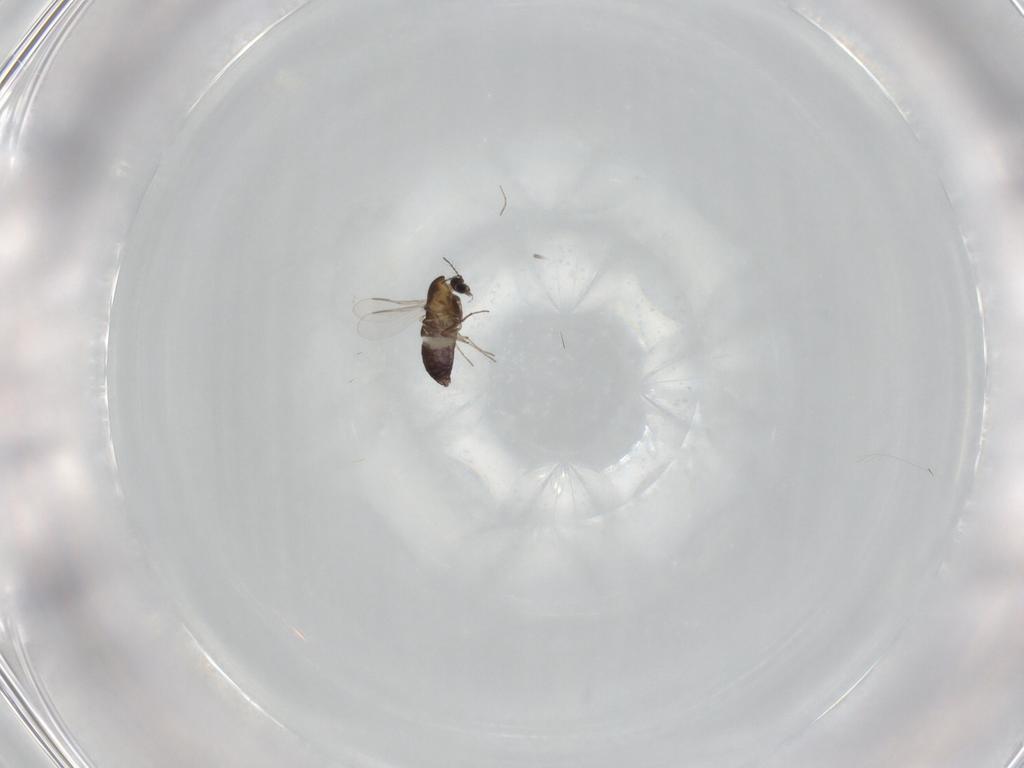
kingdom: Animalia
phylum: Arthropoda
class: Insecta
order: Diptera
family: Chironomidae
